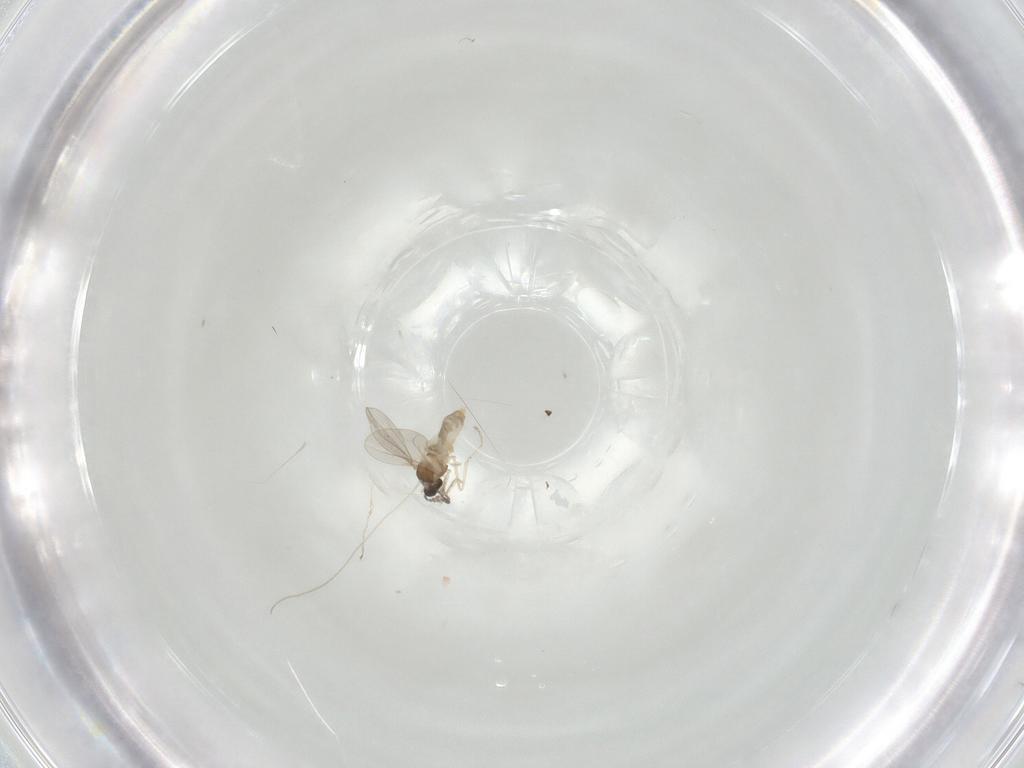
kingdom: Animalia
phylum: Arthropoda
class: Insecta
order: Diptera
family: Cecidomyiidae
